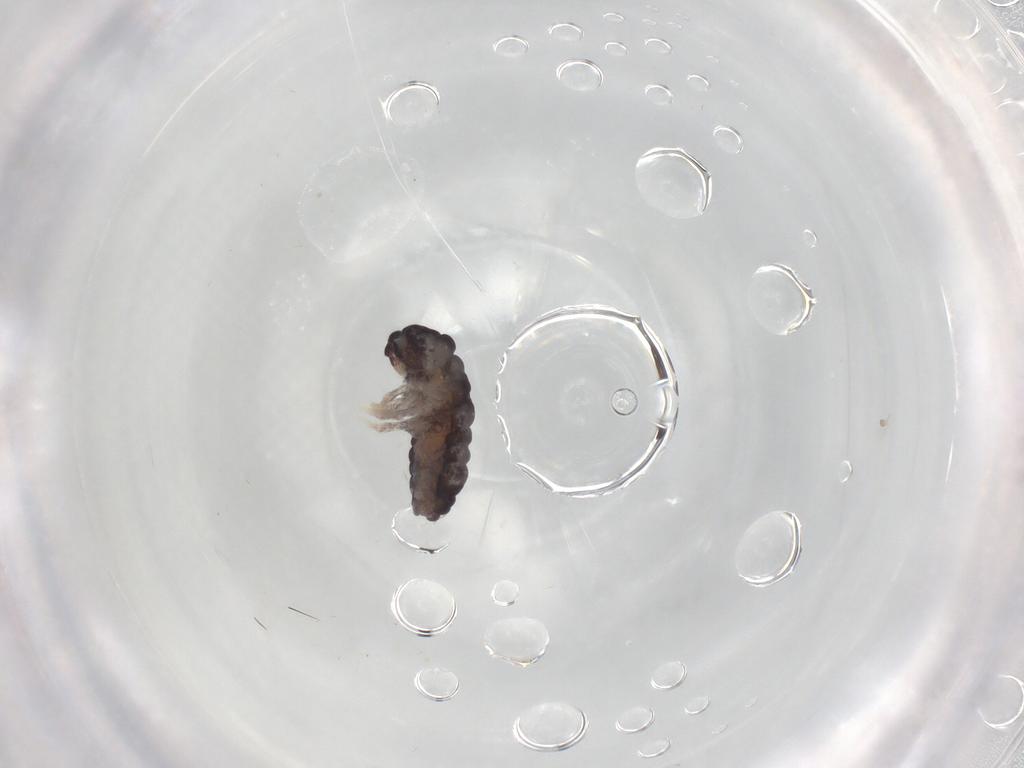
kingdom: Animalia
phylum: Arthropoda
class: Collembola
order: Poduromorpha
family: Neanuridae
